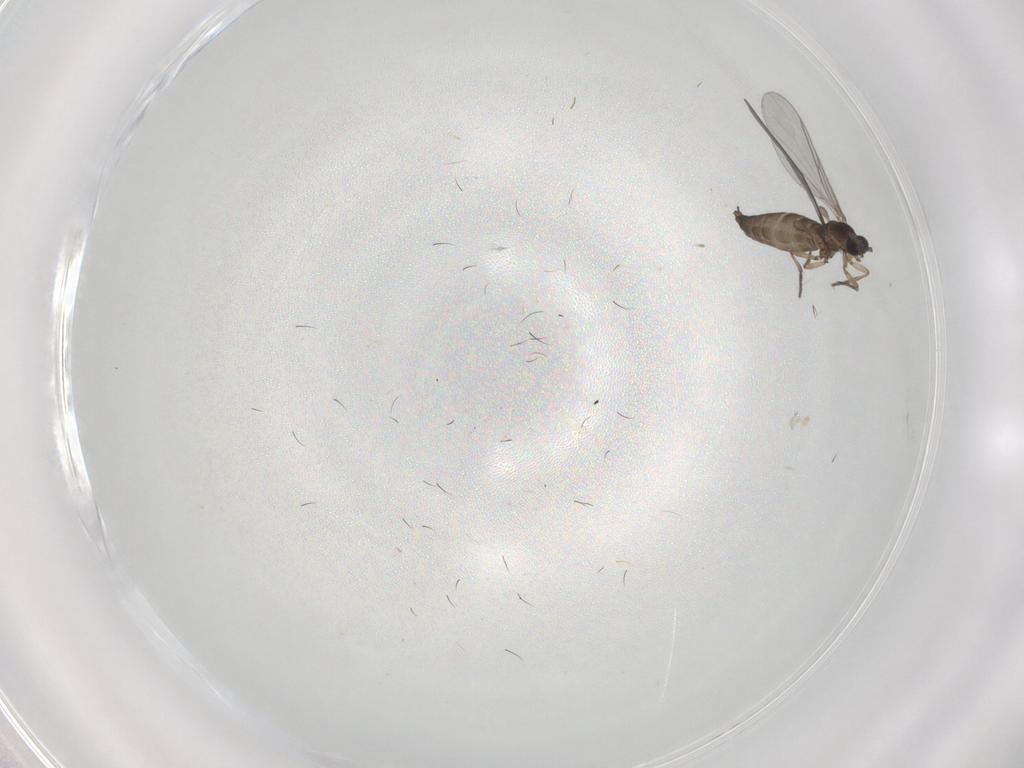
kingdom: Animalia
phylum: Arthropoda
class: Insecta
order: Diptera
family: Sciaridae
